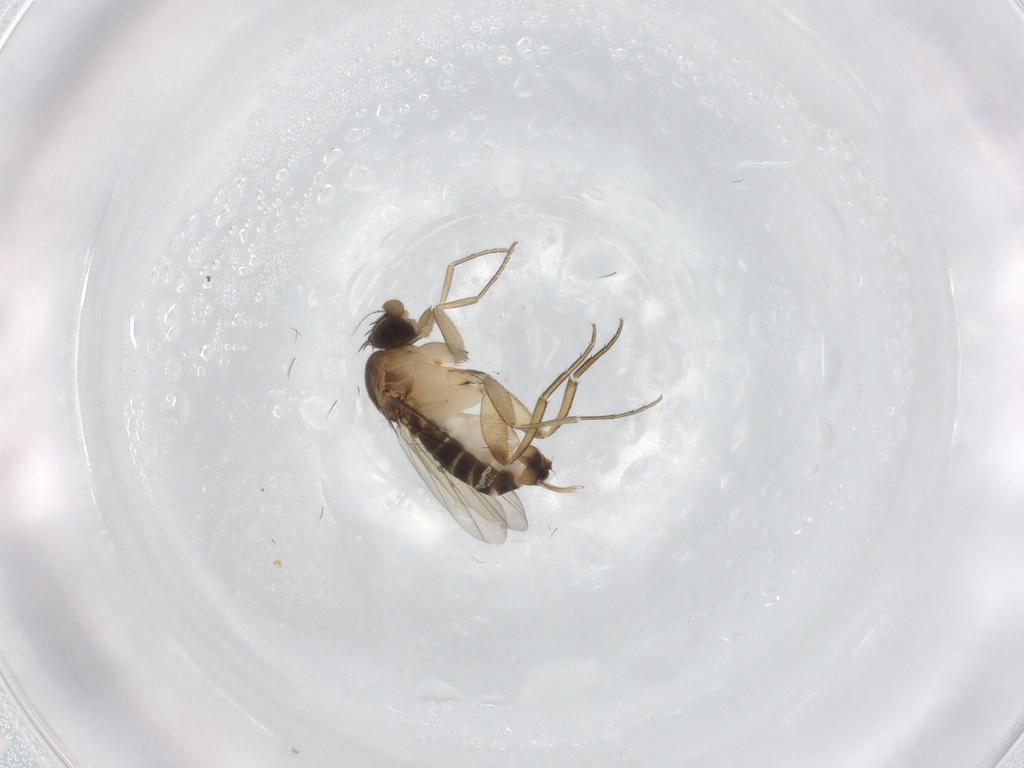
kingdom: Animalia
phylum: Arthropoda
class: Insecta
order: Diptera
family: Phoridae
